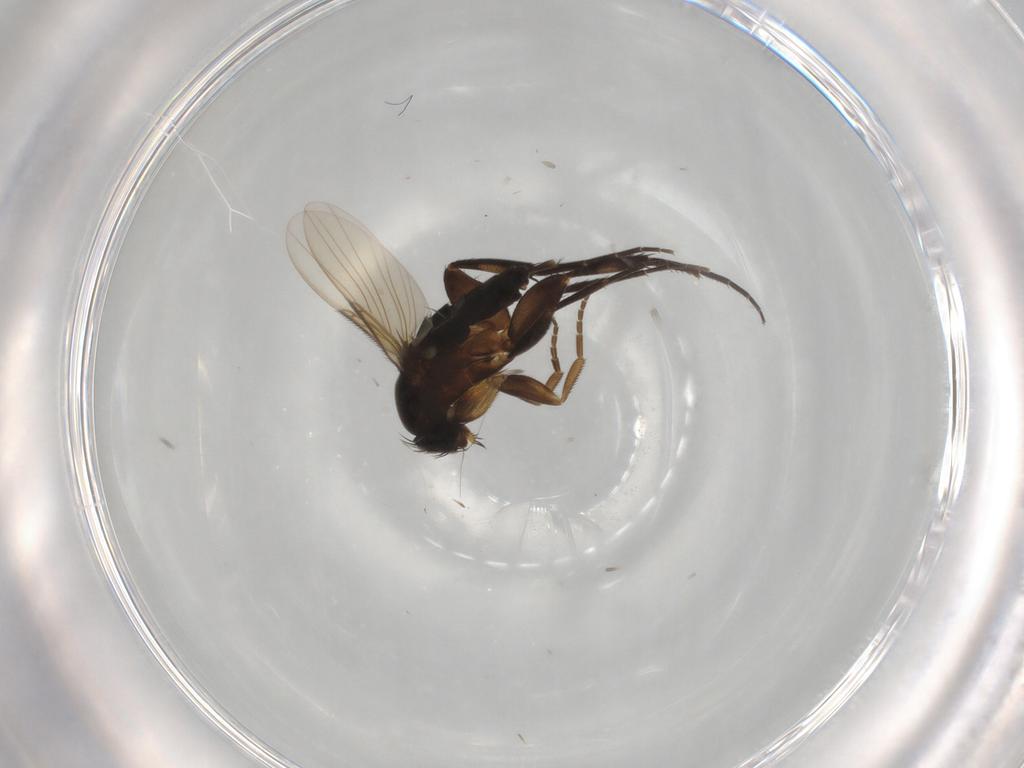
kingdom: Animalia
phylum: Arthropoda
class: Insecta
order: Diptera
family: Phoridae
